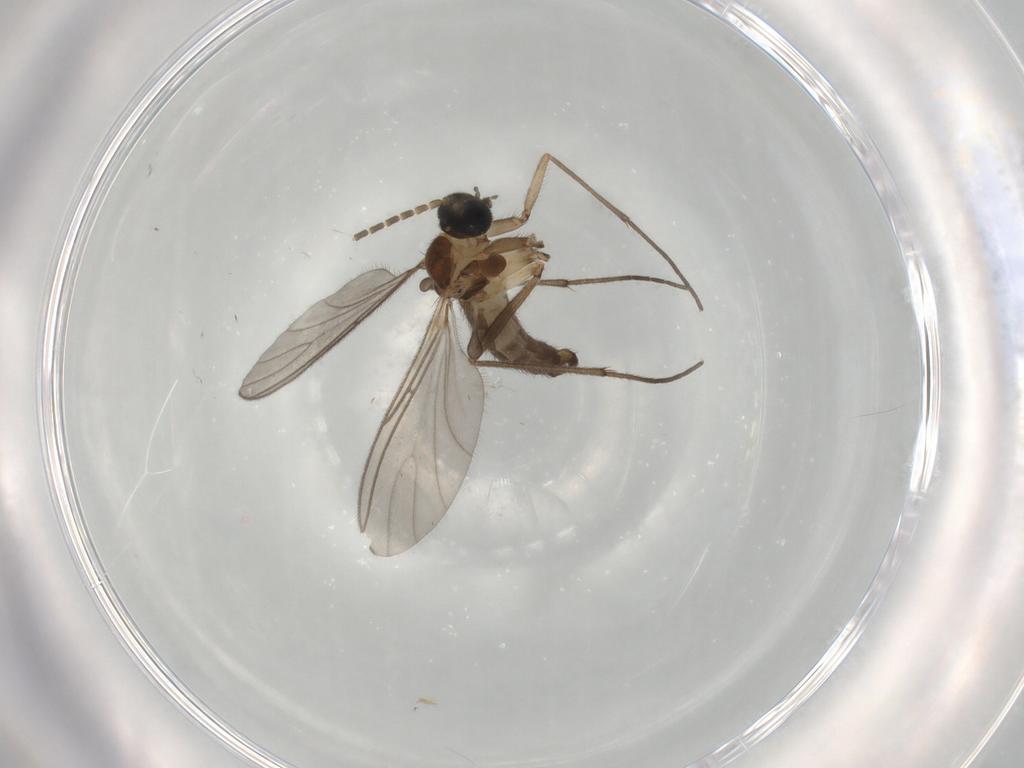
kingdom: Animalia
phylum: Arthropoda
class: Insecta
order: Diptera
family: Sciaridae
